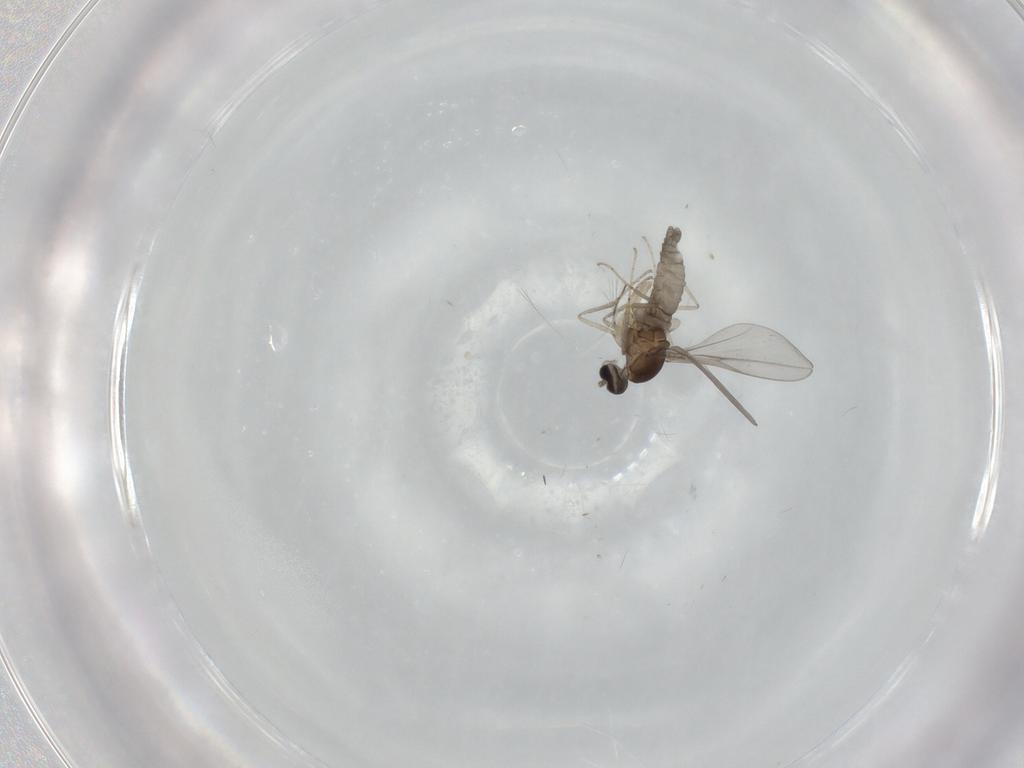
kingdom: Animalia
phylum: Arthropoda
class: Insecta
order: Diptera
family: Cecidomyiidae
